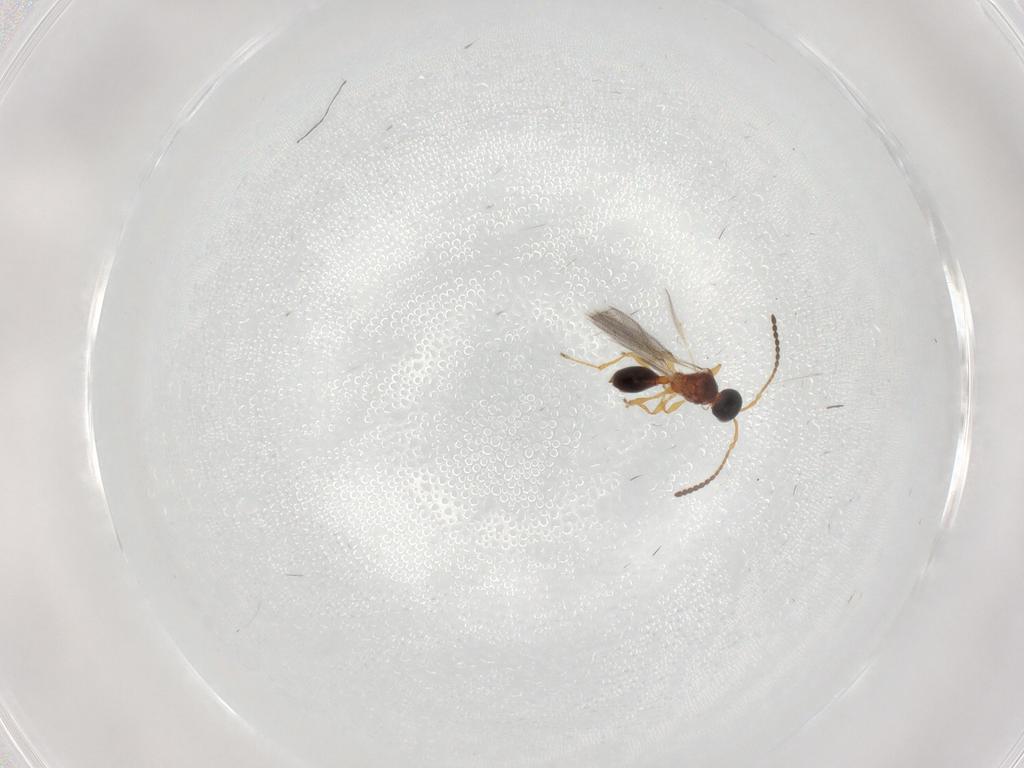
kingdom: Animalia
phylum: Arthropoda
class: Insecta
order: Hymenoptera
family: Diapriidae
